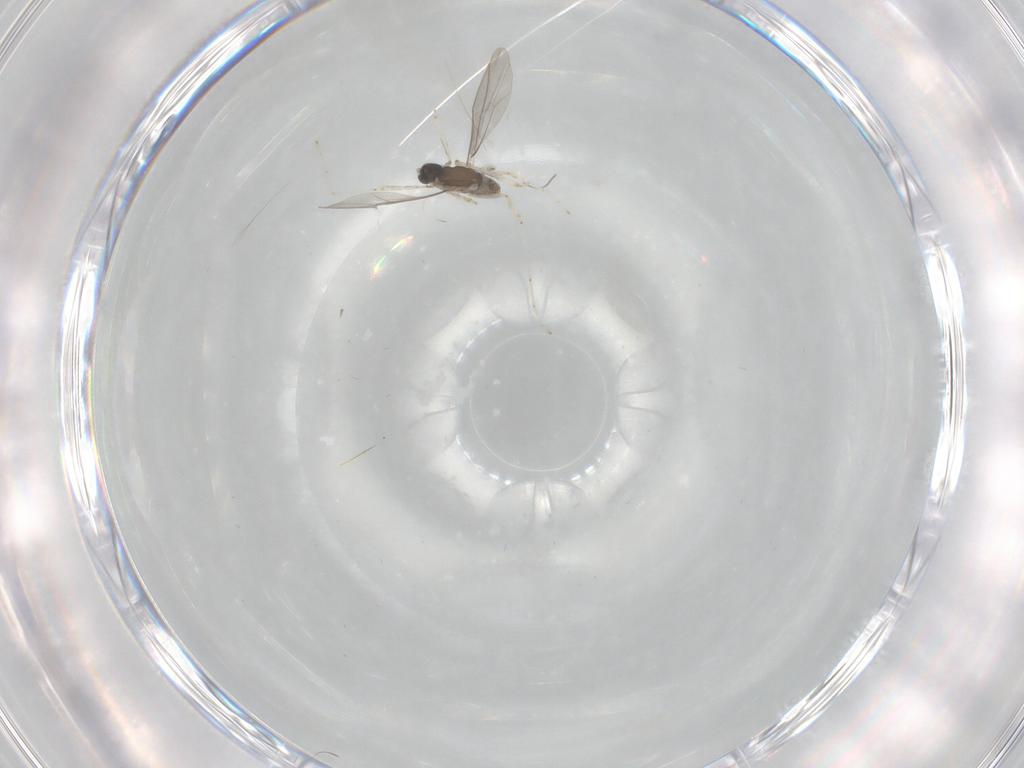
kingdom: Animalia
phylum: Arthropoda
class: Insecta
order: Diptera
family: Cecidomyiidae
